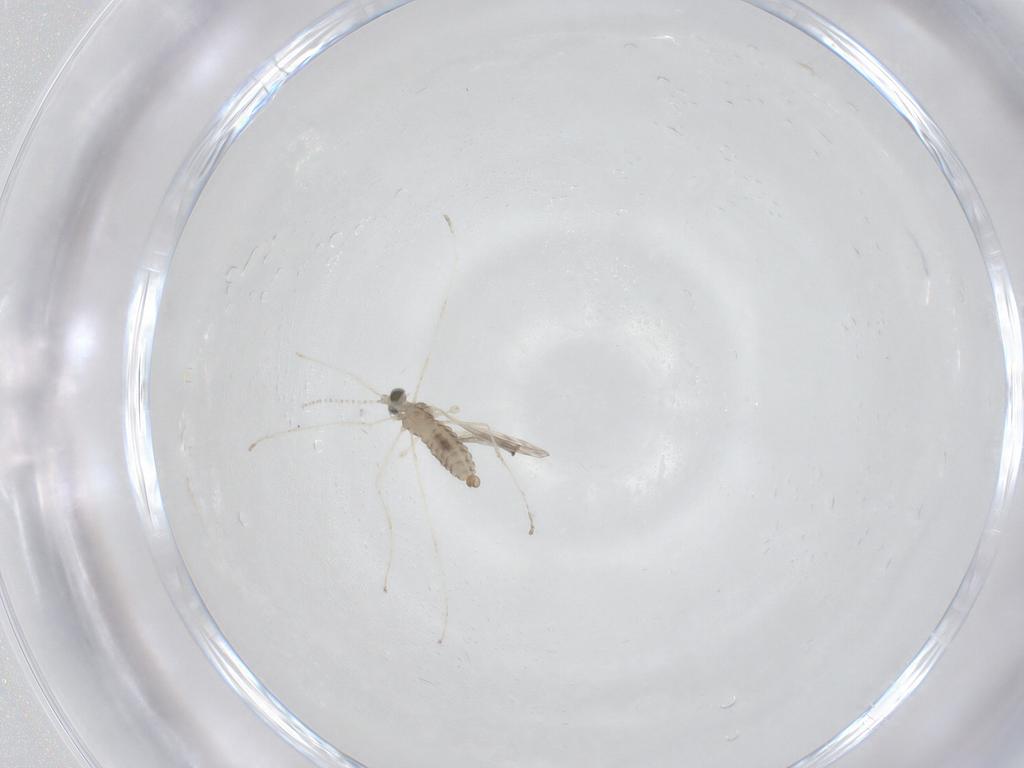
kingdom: Animalia
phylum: Arthropoda
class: Insecta
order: Diptera
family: Cecidomyiidae
